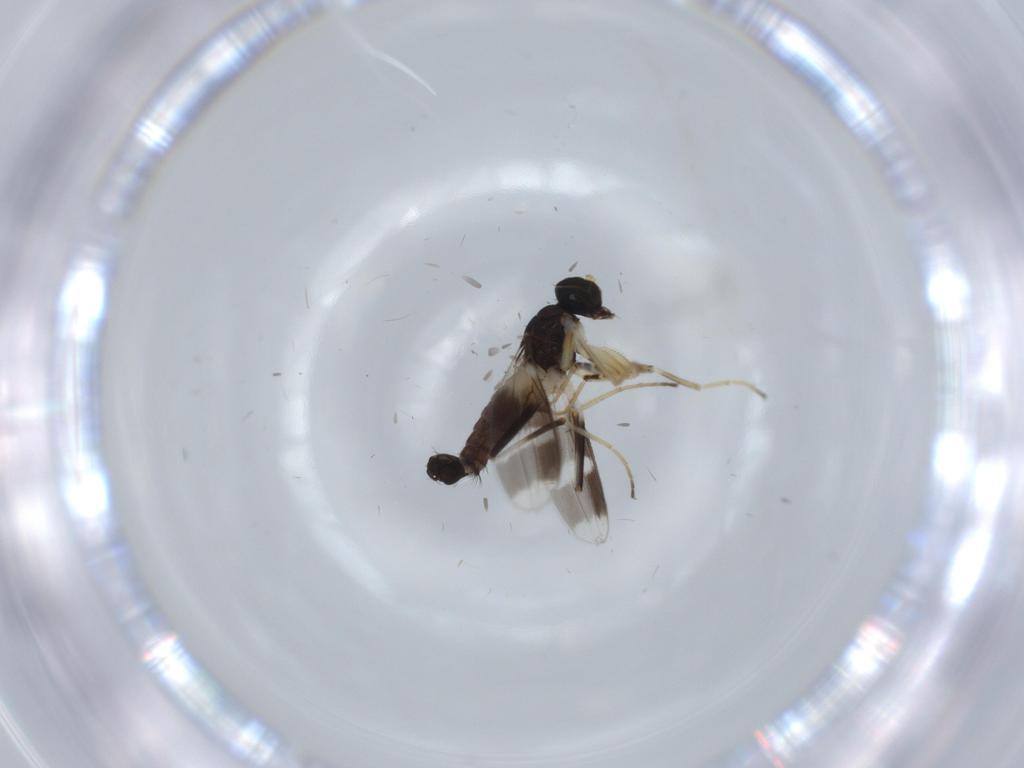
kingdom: Animalia
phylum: Arthropoda
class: Insecta
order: Diptera
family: Hybotidae
